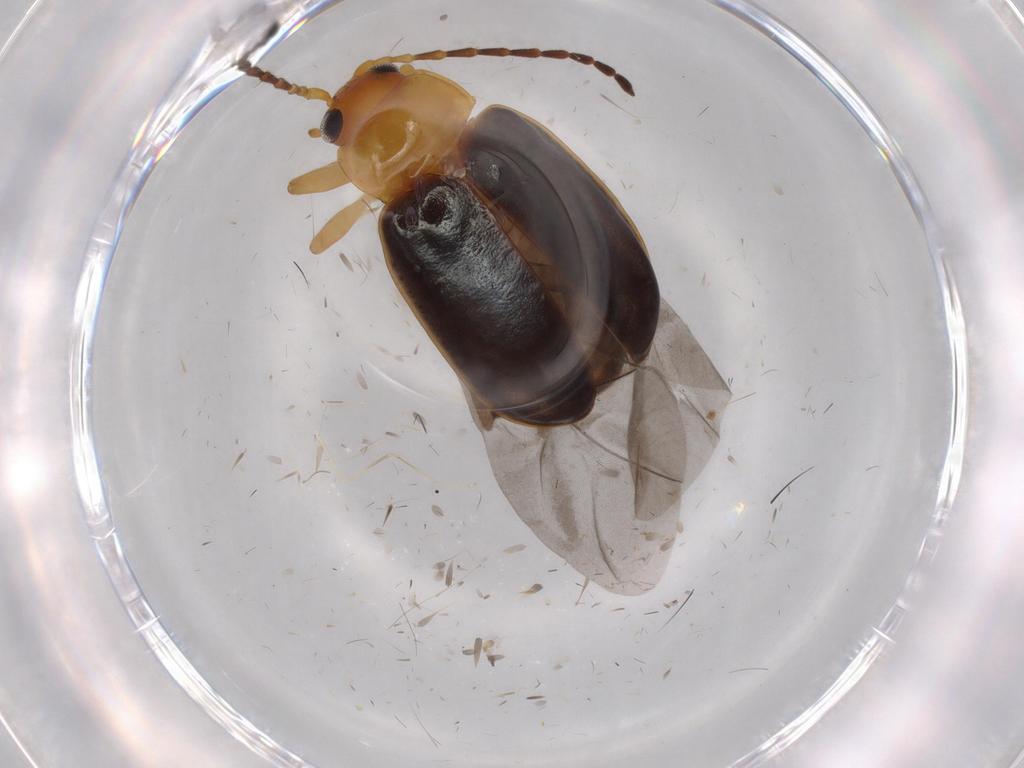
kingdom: Animalia
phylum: Arthropoda
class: Insecta
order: Coleoptera
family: Chrysomelidae
